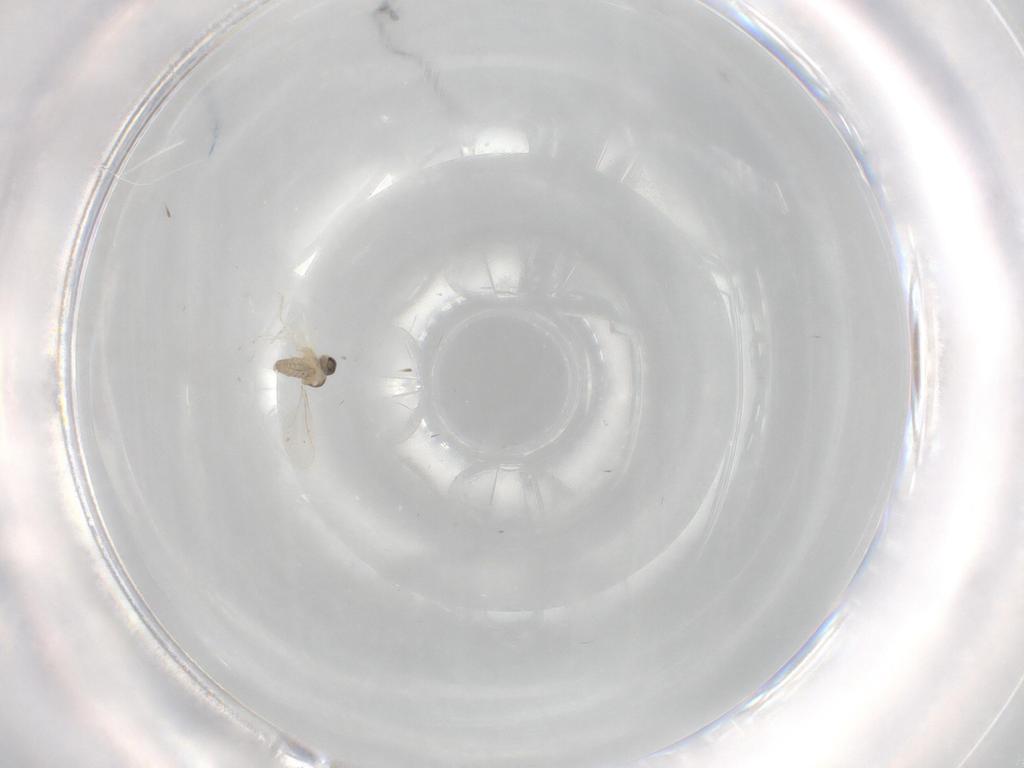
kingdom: Animalia
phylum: Arthropoda
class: Insecta
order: Diptera
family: Cecidomyiidae
